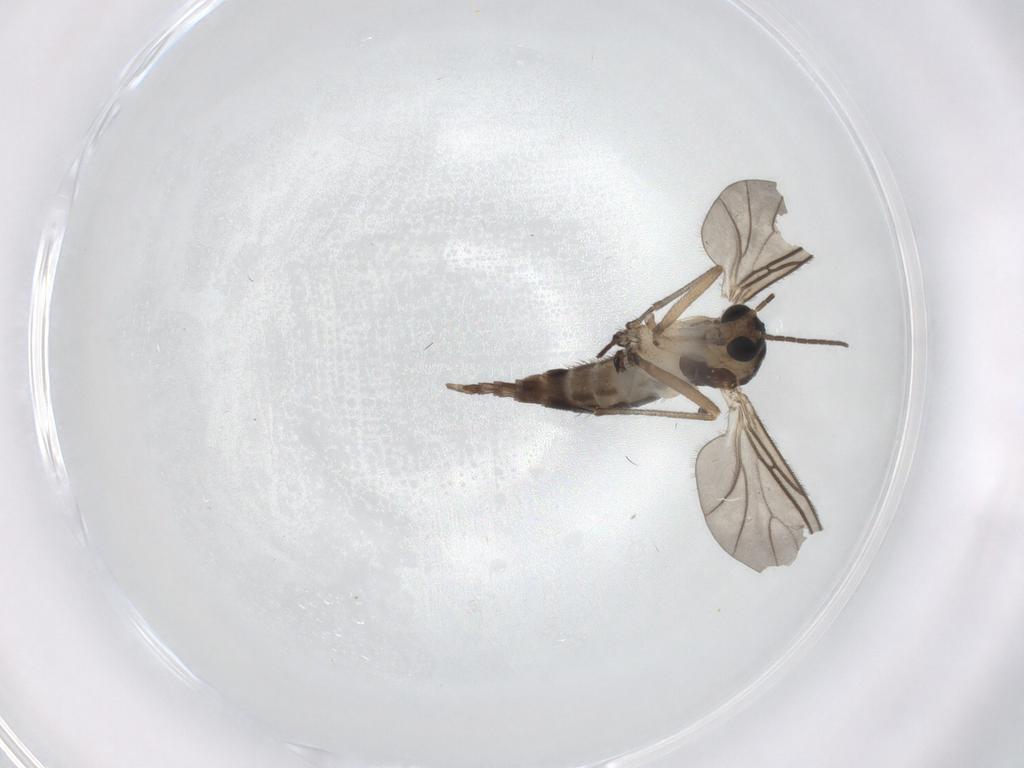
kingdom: Animalia
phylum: Arthropoda
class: Insecta
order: Diptera
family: Sciaridae
